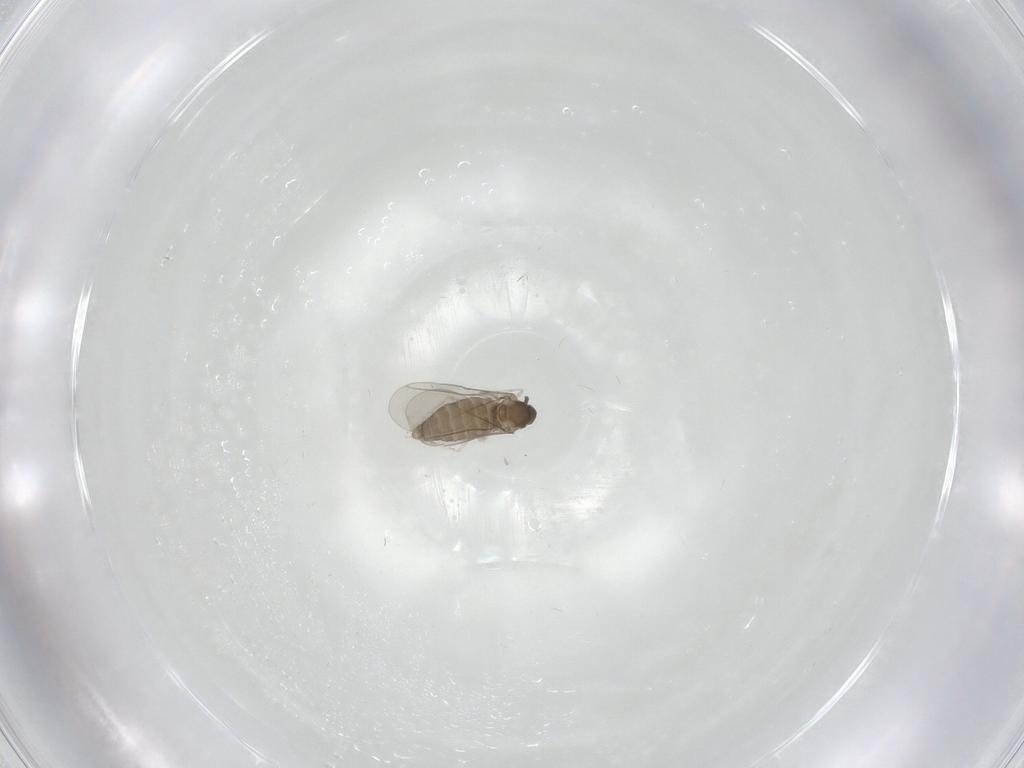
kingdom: Animalia
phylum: Arthropoda
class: Insecta
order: Diptera
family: Cecidomyiidae
